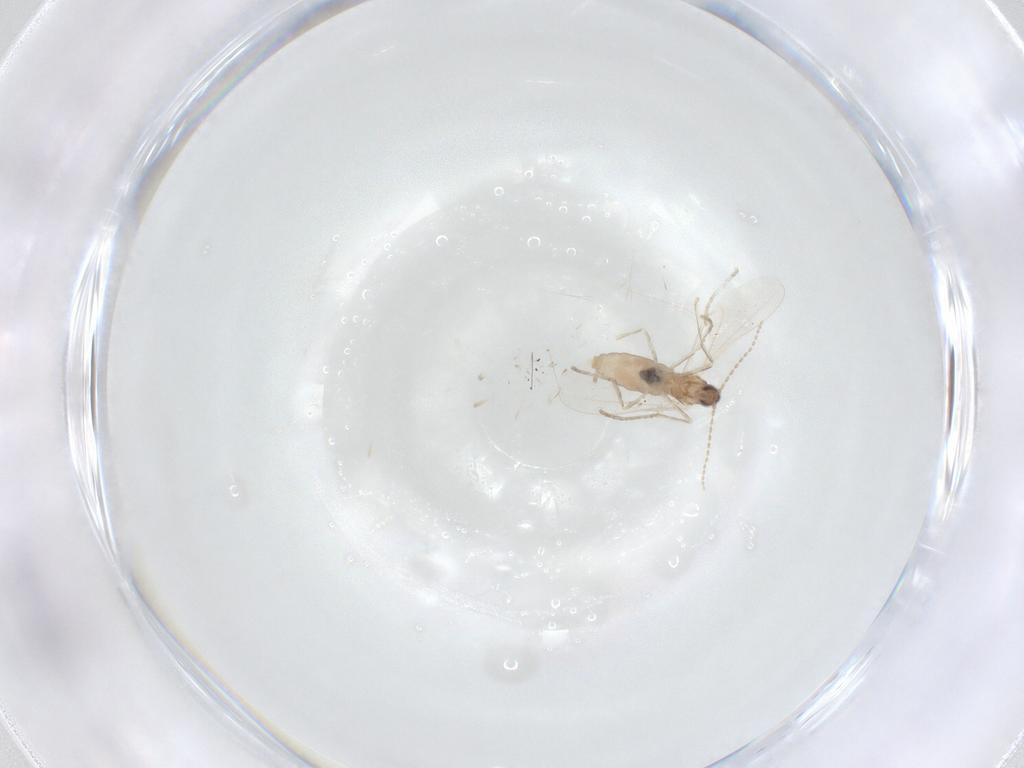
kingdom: Animalia
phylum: Arthropoda
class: Insecta
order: Diptera
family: Cecidomyiidae
